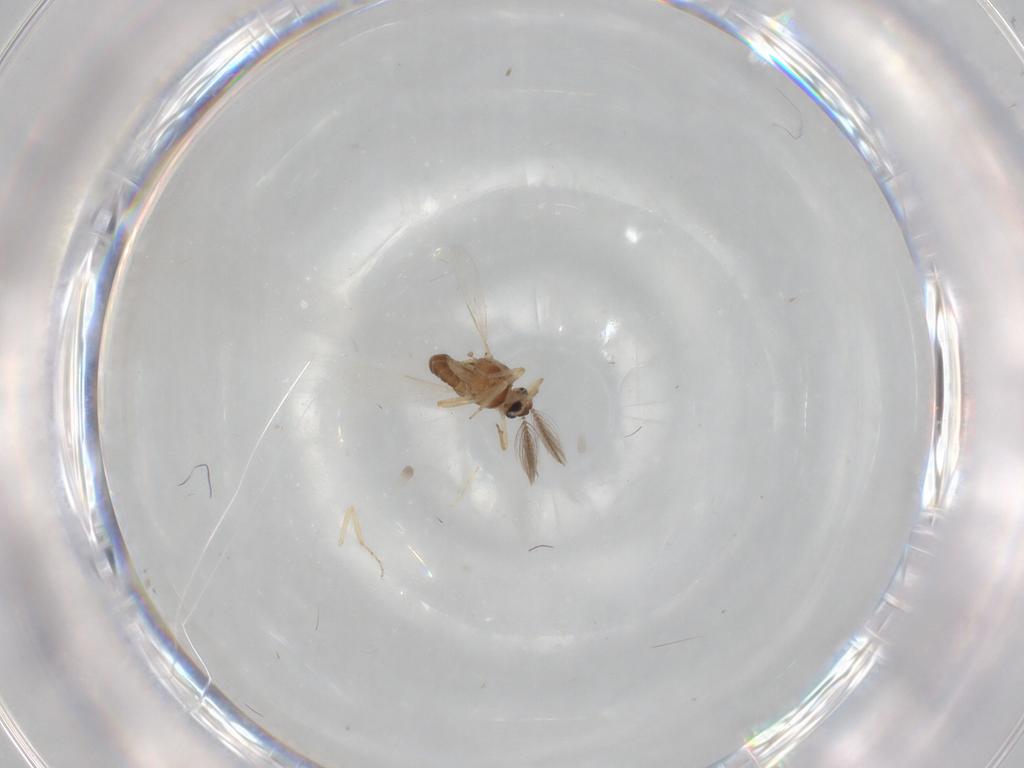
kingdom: Animalia
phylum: Arthropoda
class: Insecta
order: Diptera
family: Ceratopogonidae
